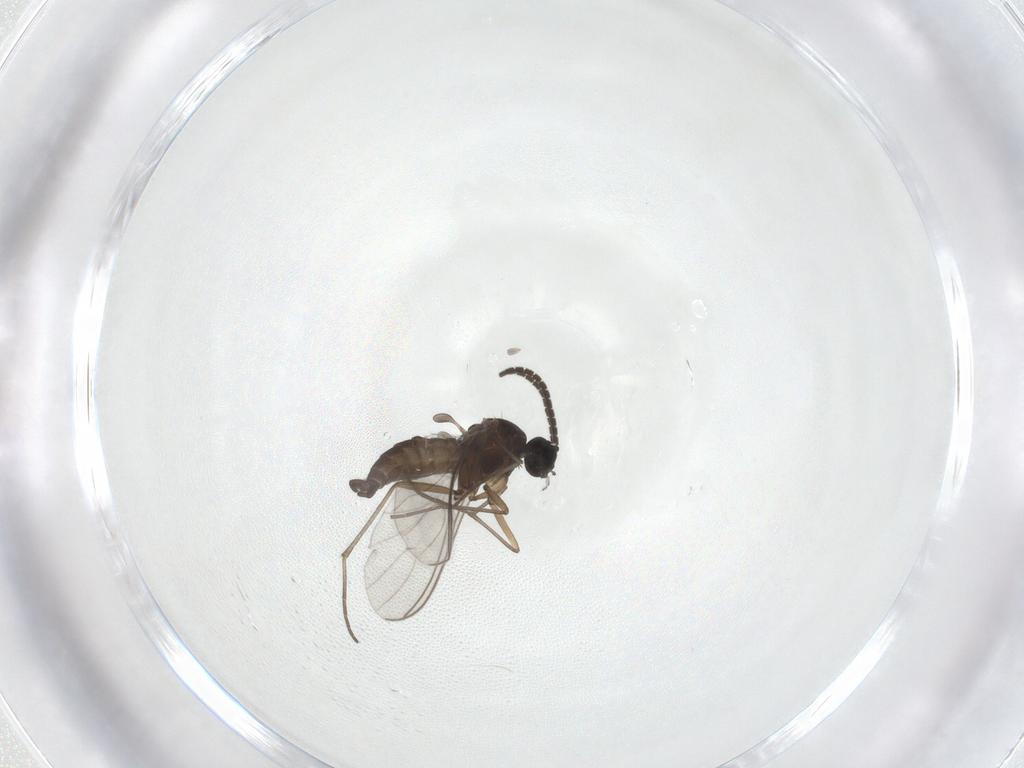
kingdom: Animalia
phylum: Arthropoda
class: Insecta
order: Diptera
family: Sciaridae
